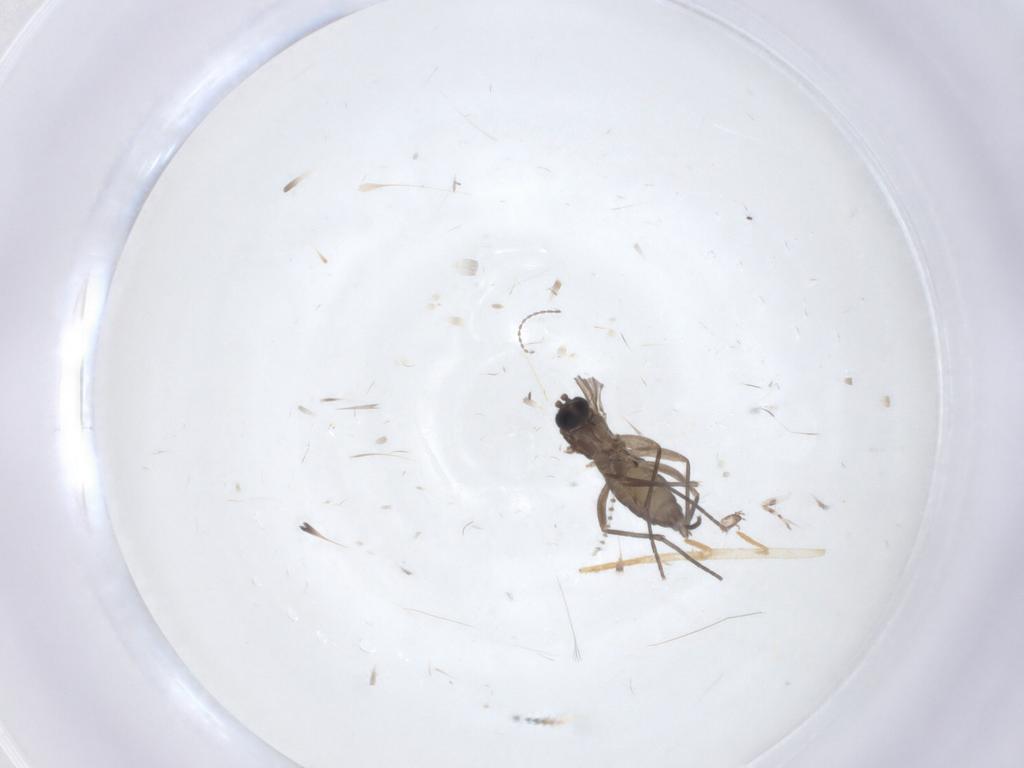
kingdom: Animalia
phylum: Arthropoda
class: Insecta
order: Diptera
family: Sciaridae
